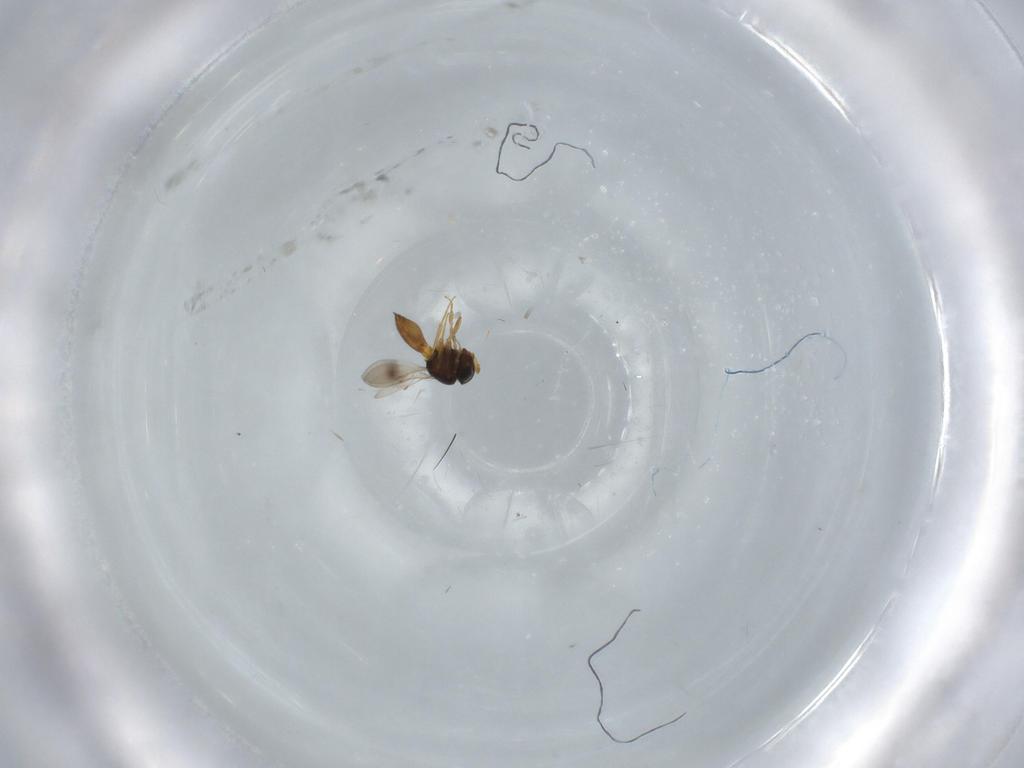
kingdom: Animalia
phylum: Arthropoda
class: Insecta
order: Hymenoptera
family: Scelionidae
